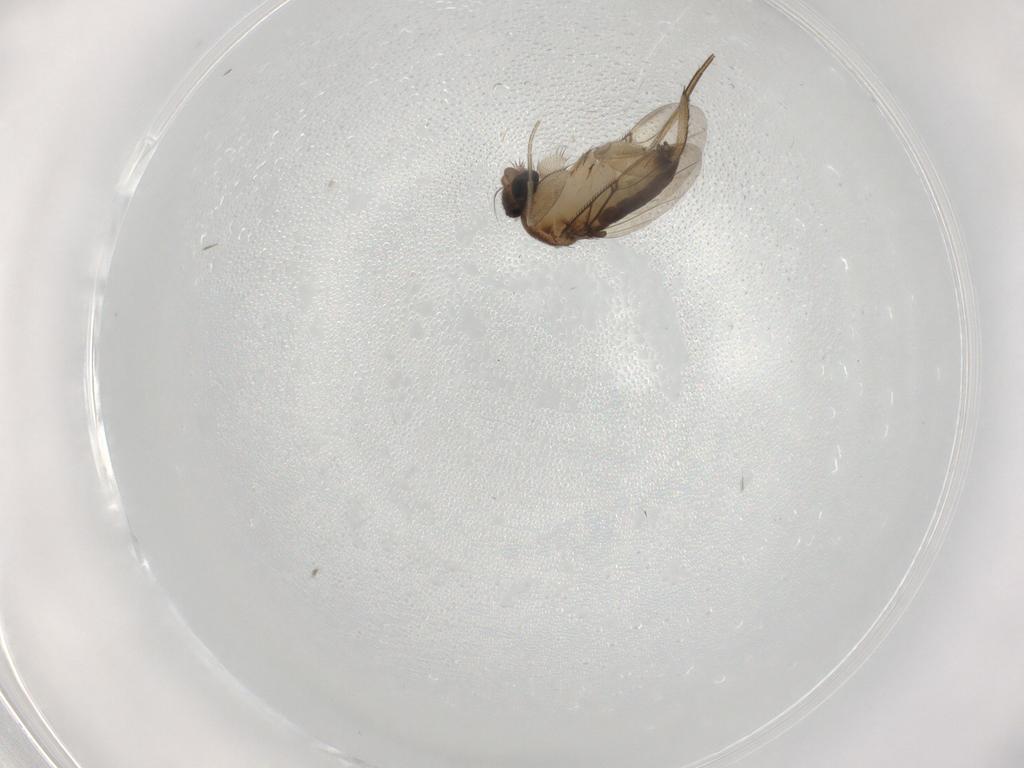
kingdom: Animalia
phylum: Arthropoda
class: Insecta
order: Diptera
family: Phoridae
